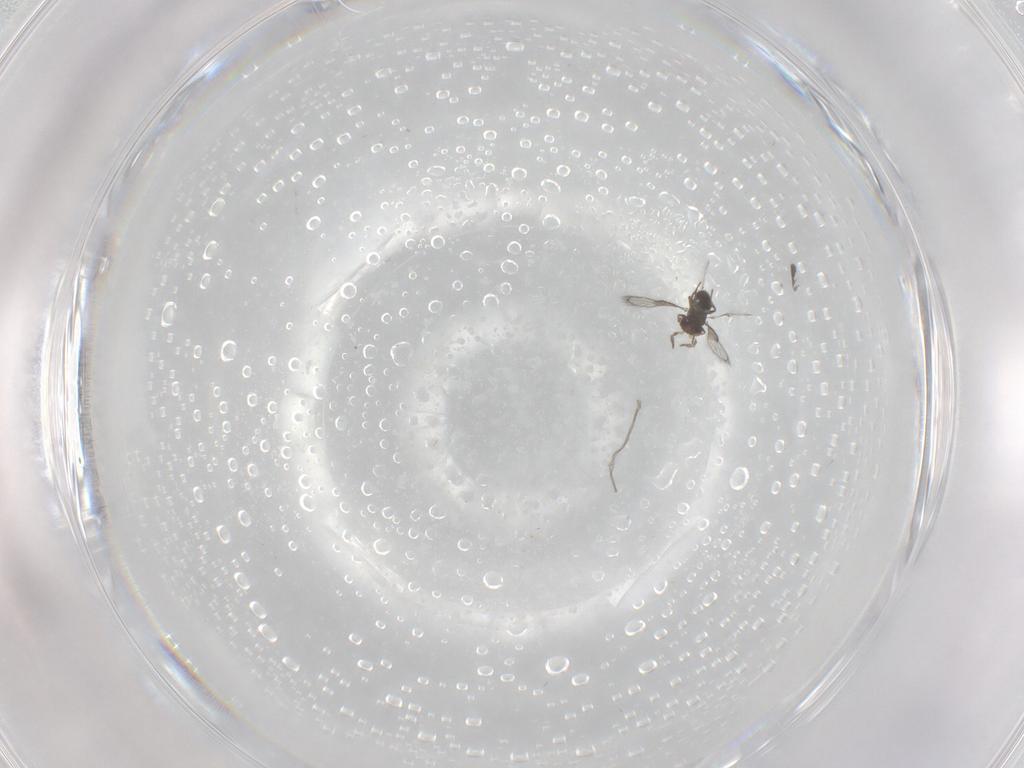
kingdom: Animalia
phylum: Arthropoda
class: Insecta
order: Hymenoptera
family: Trichogrammatidae
